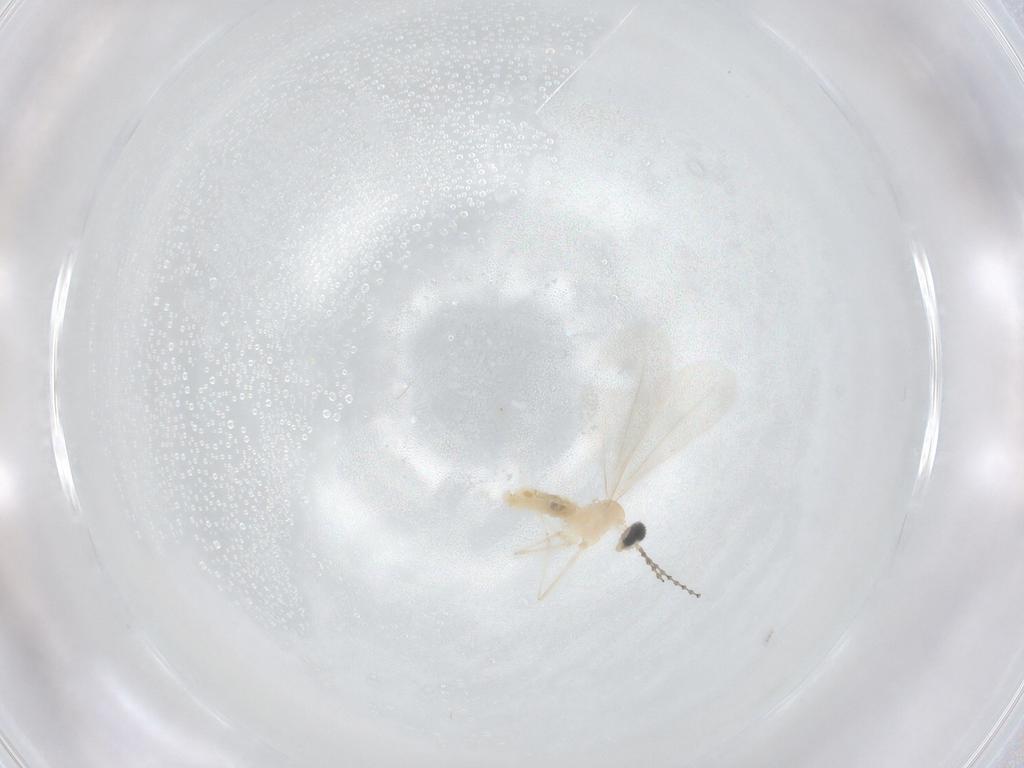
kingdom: Animalia
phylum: Arthropoda
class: Insecta
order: Diptera
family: Cecidomyiidae
